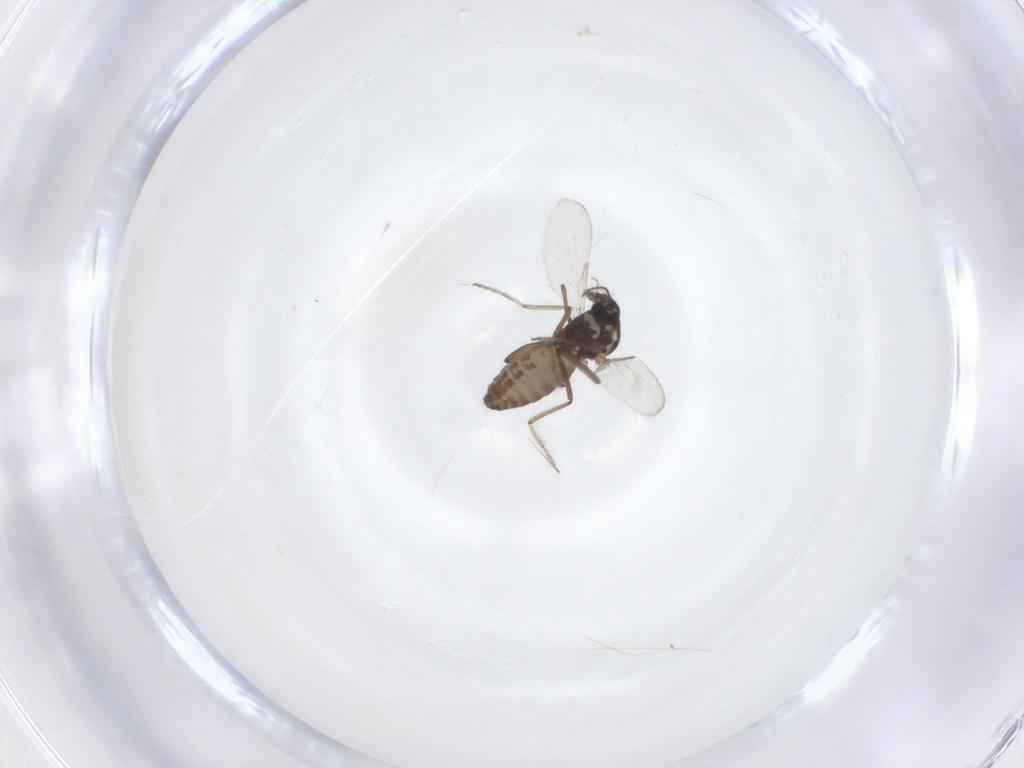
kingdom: Animalia
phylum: Arthropoda
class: Insecta
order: Diptera
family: Ceratopogonidae
